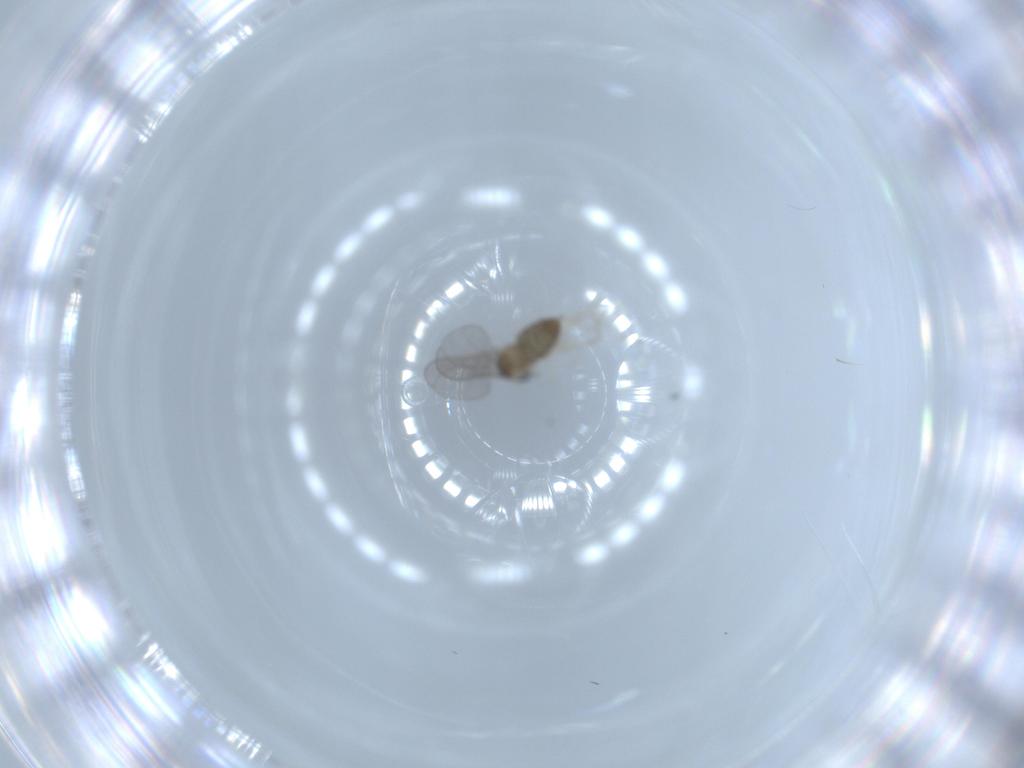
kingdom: Animalia
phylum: Arthropoda
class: Insecta
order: Diptera
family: Cecidomyiidae
